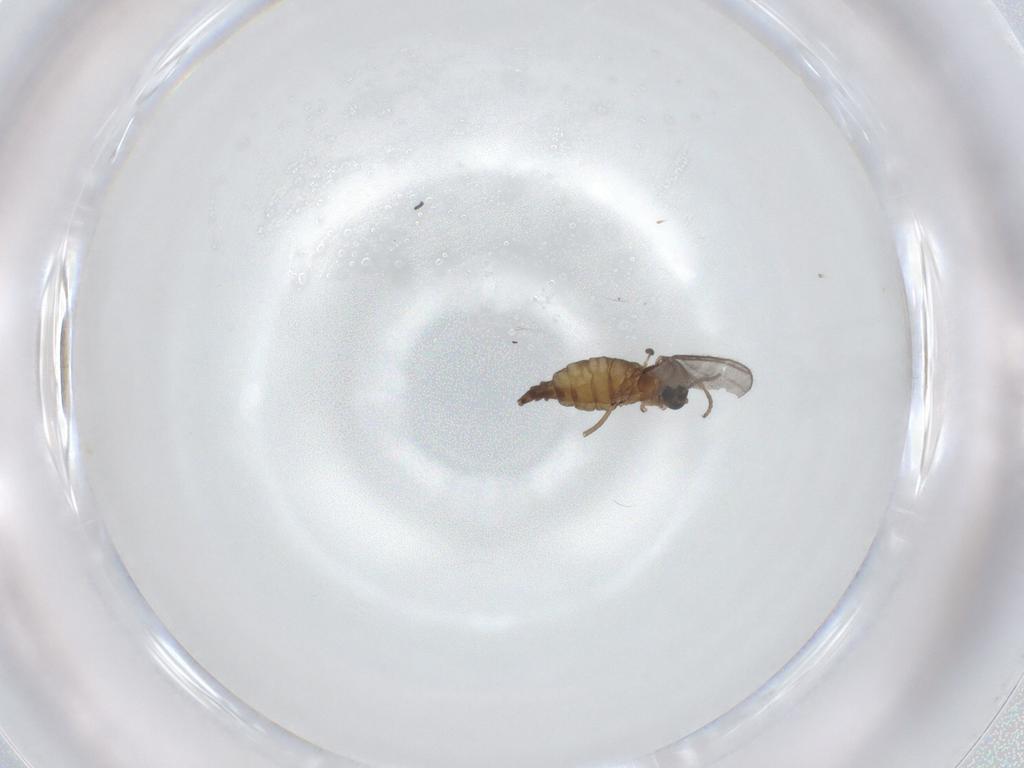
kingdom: Animalia
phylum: Arthropoda
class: Insecta
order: Diptera
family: Sciaridae
